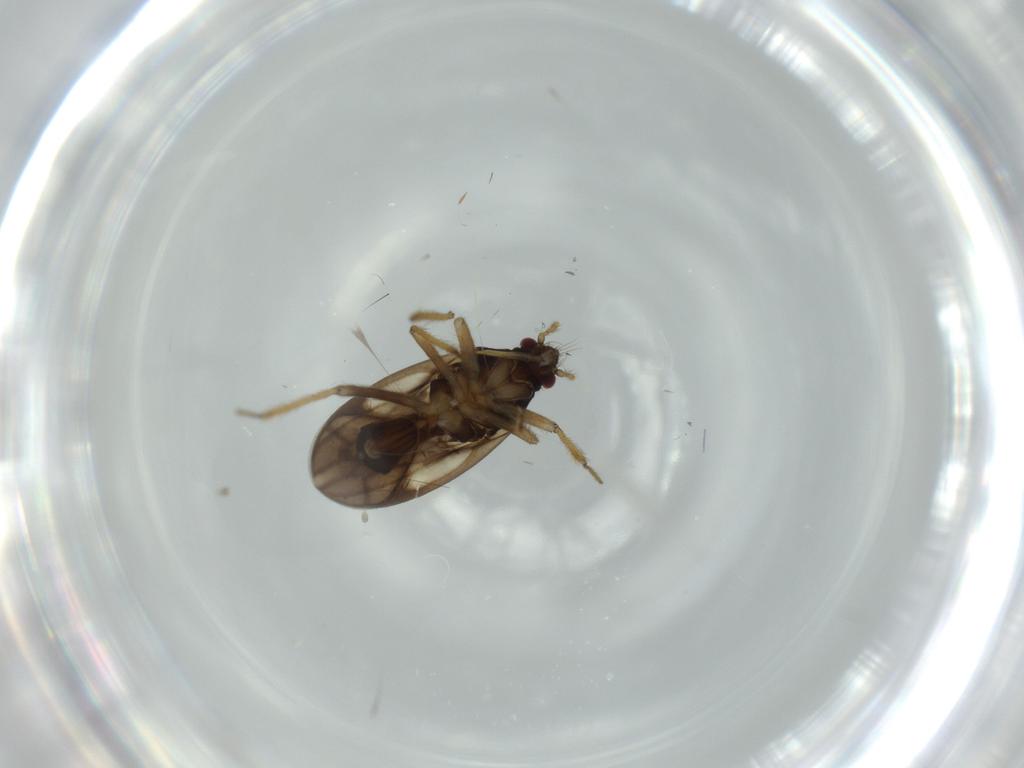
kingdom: Animalia
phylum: Arthropoda
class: Insecta
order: Hemiptera
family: Ceratocombidae
